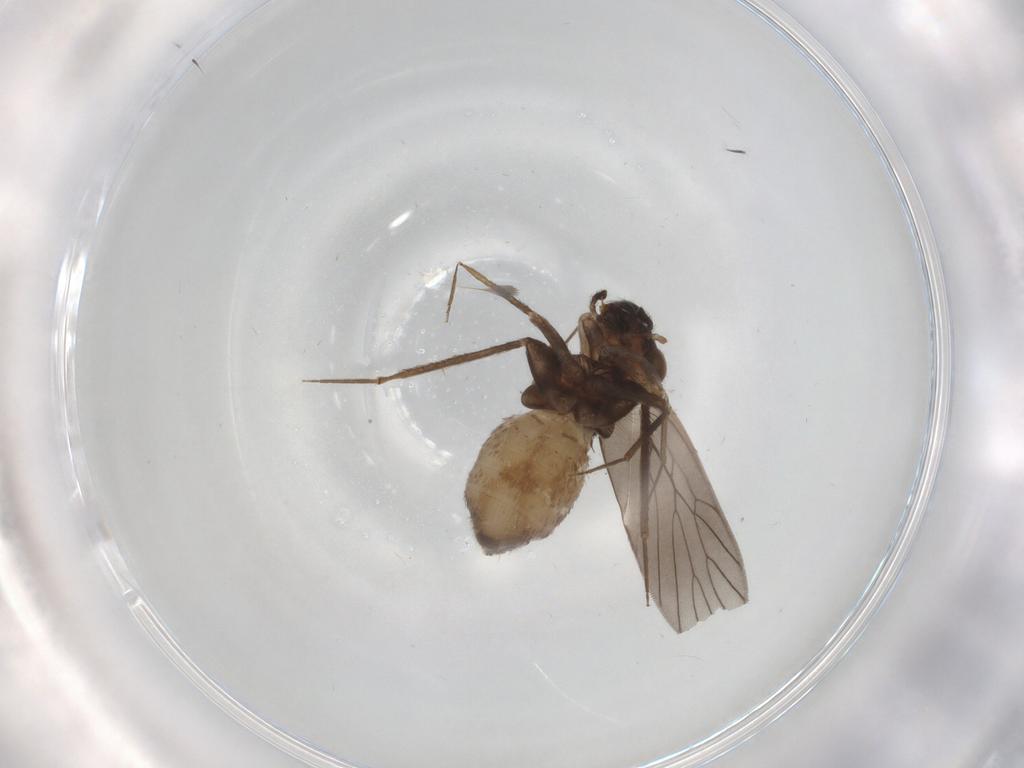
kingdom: Animalia
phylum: Arthropoda
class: Insecta
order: Psocodea
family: Lepidopsocidae
